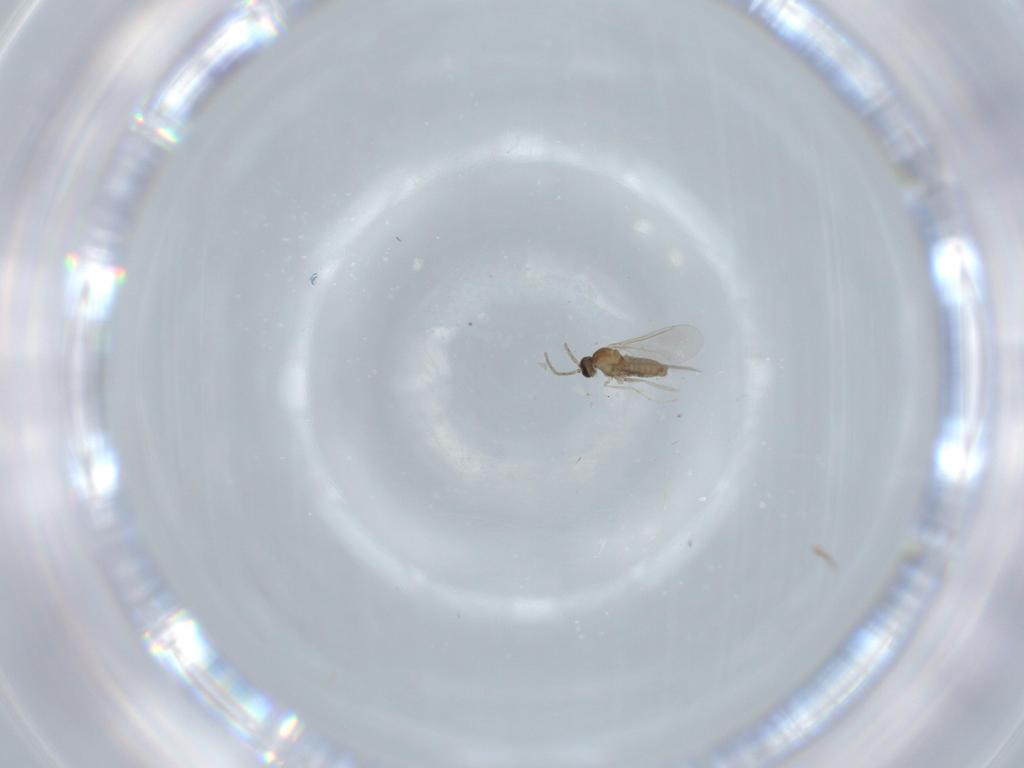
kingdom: Animalia
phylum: Arthropoda
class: Insecta
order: Diptera
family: Cecidomyiidae
